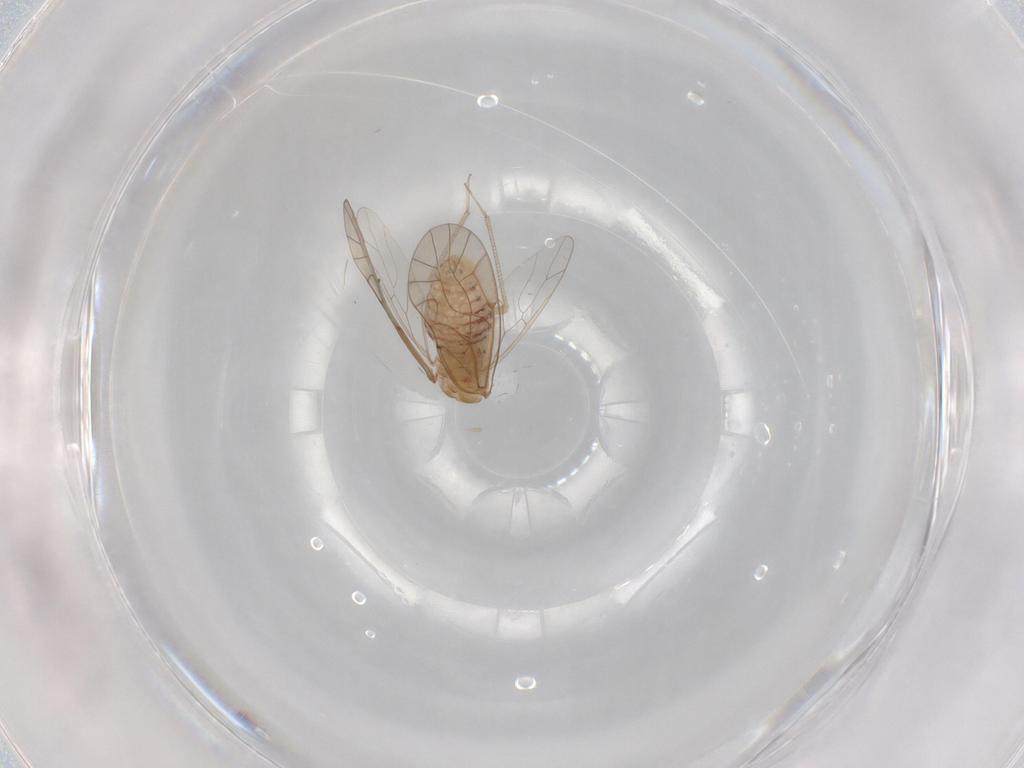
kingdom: Animalia
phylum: Arthropoda
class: Insecta
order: Psocodea
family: Lachesillidae
